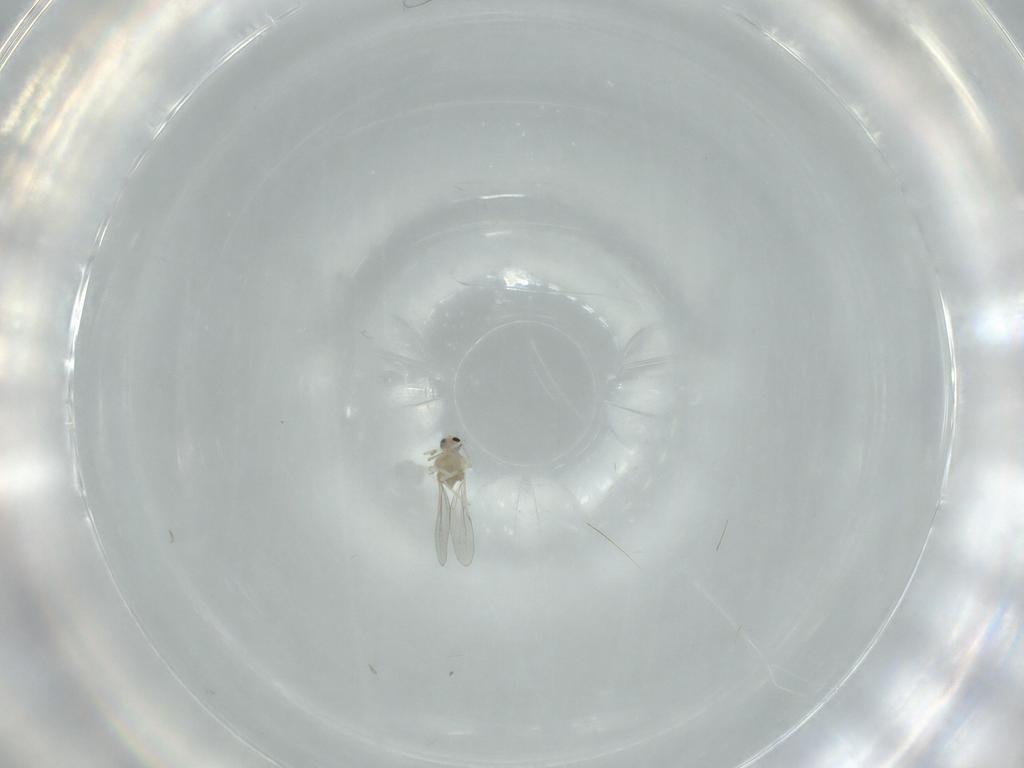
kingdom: Animalia
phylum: Arthropoda
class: Insecta
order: Diptera
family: Cecidomyiidae
